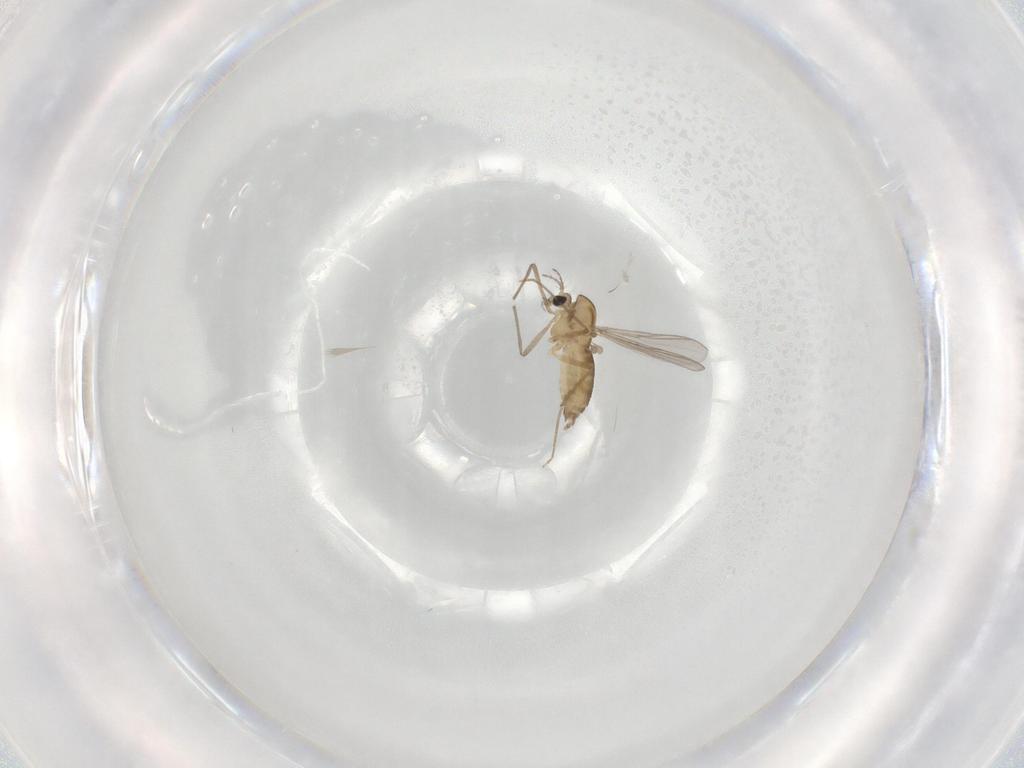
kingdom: Animalia
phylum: Arthropoda
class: Insecta
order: Diptera
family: Chironomidae
